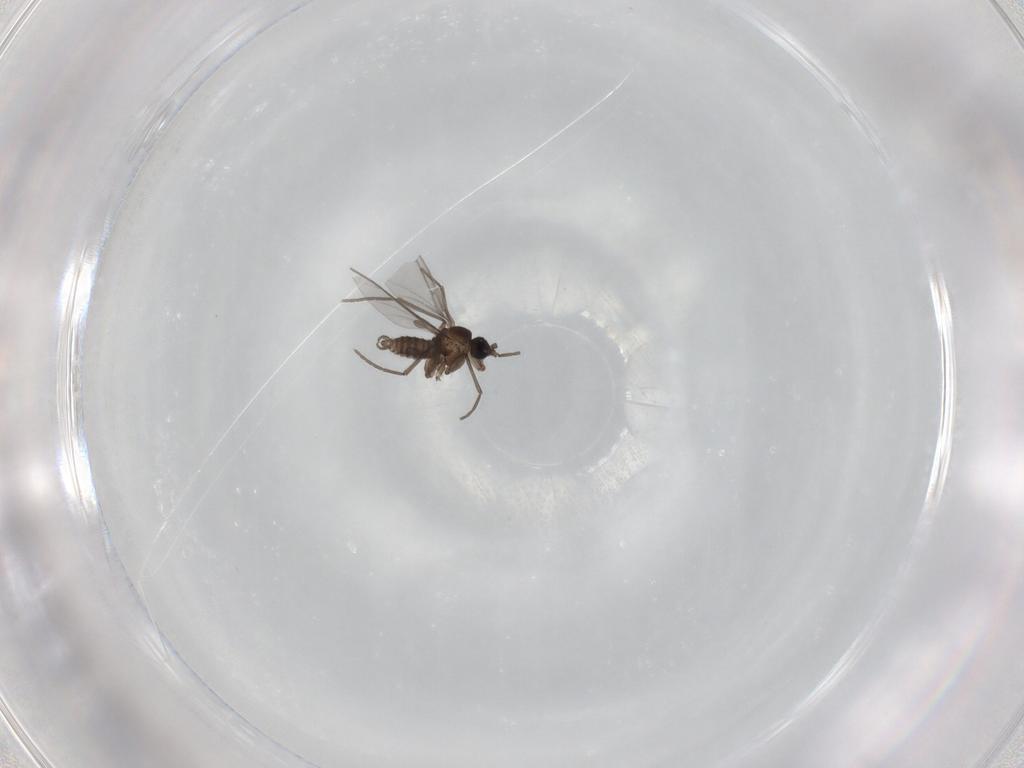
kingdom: Animalia
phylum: Arthropoda
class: Insecta
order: Diptera
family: Sciaridae
